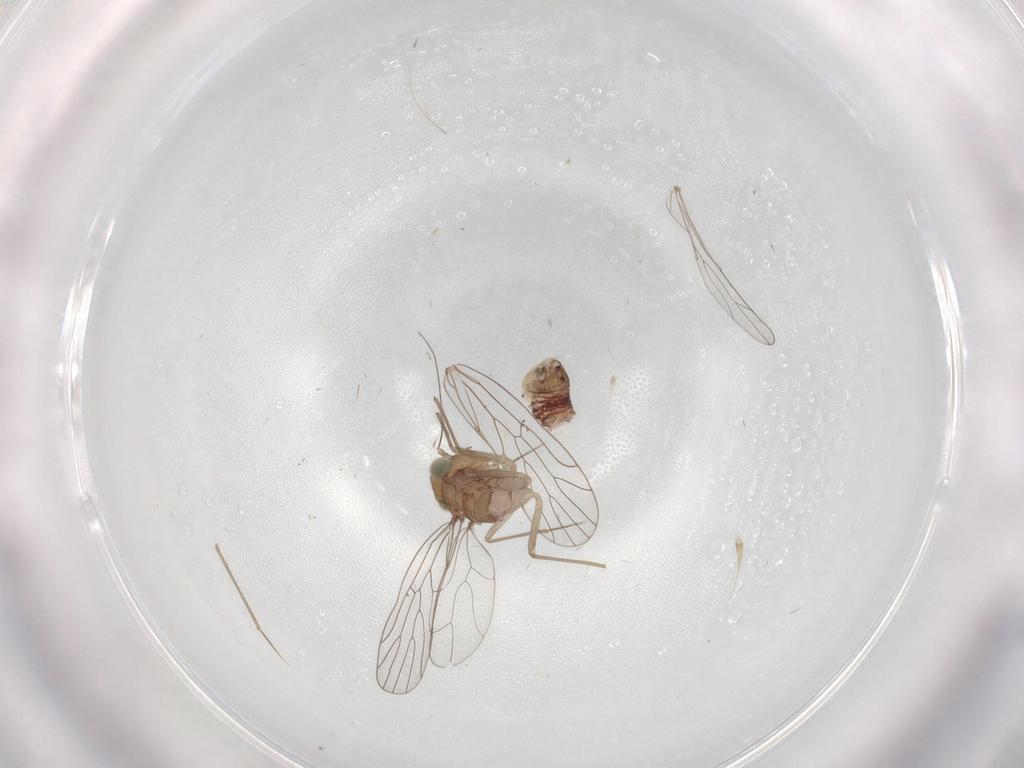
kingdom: Animalia
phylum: Arthropoda
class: Insecta
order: Psocodea
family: Amphientomidae
